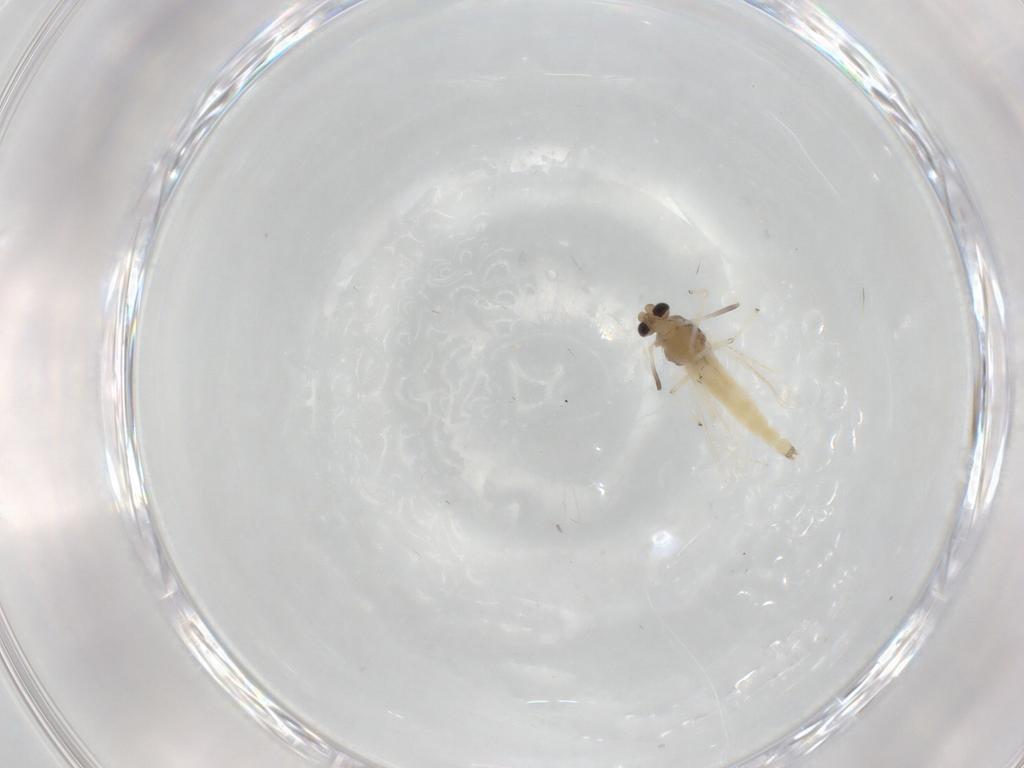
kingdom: Animalia
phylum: Arthropoda
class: Insecta
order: Diptera
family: Chironomidae
